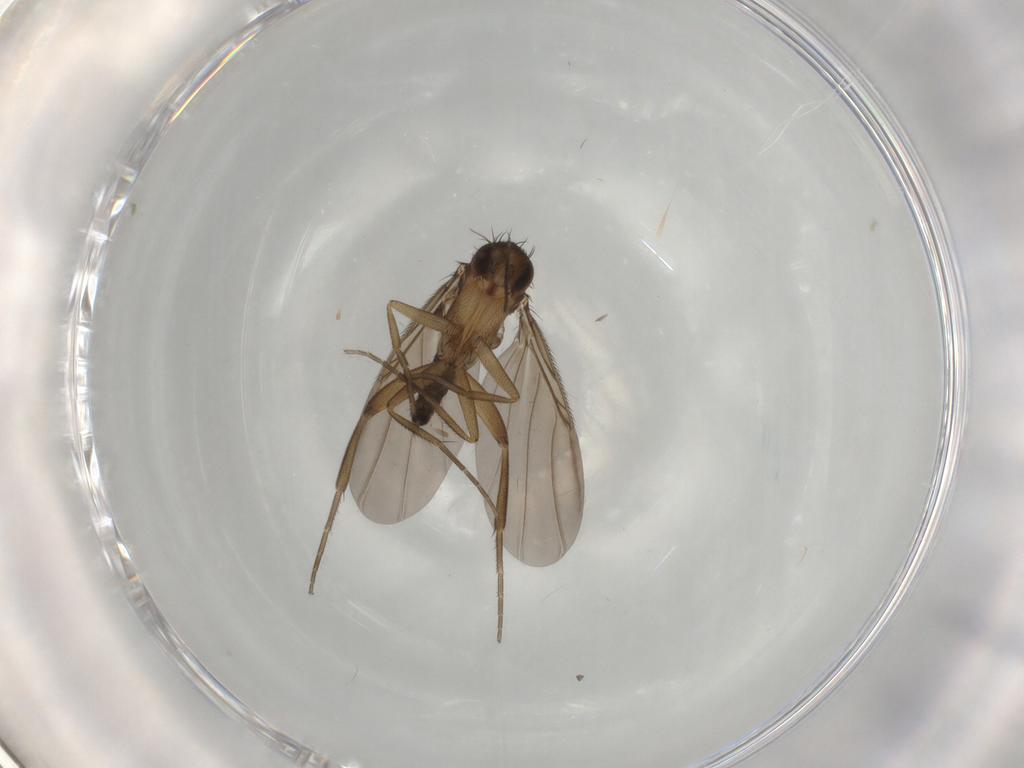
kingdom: Animalia
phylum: Arthropoda
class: Insecta
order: Diptera
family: Phoridae
